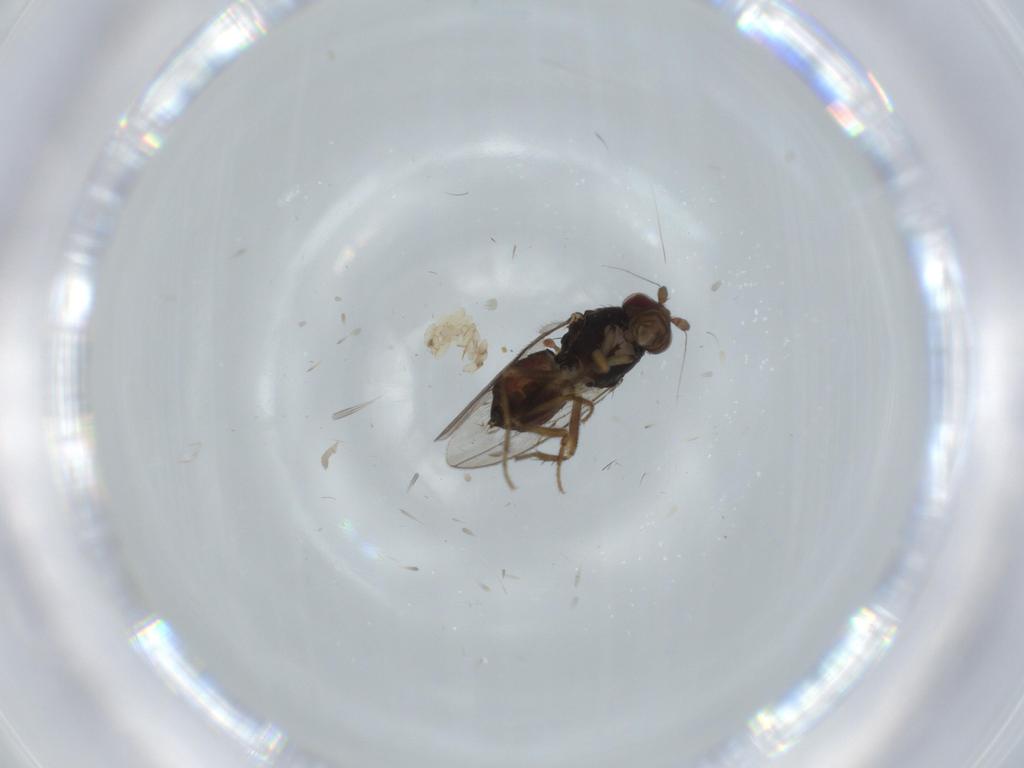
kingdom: Animalia
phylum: Arthropoda
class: Insecta
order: Diptera
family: Sphaeroceridae
